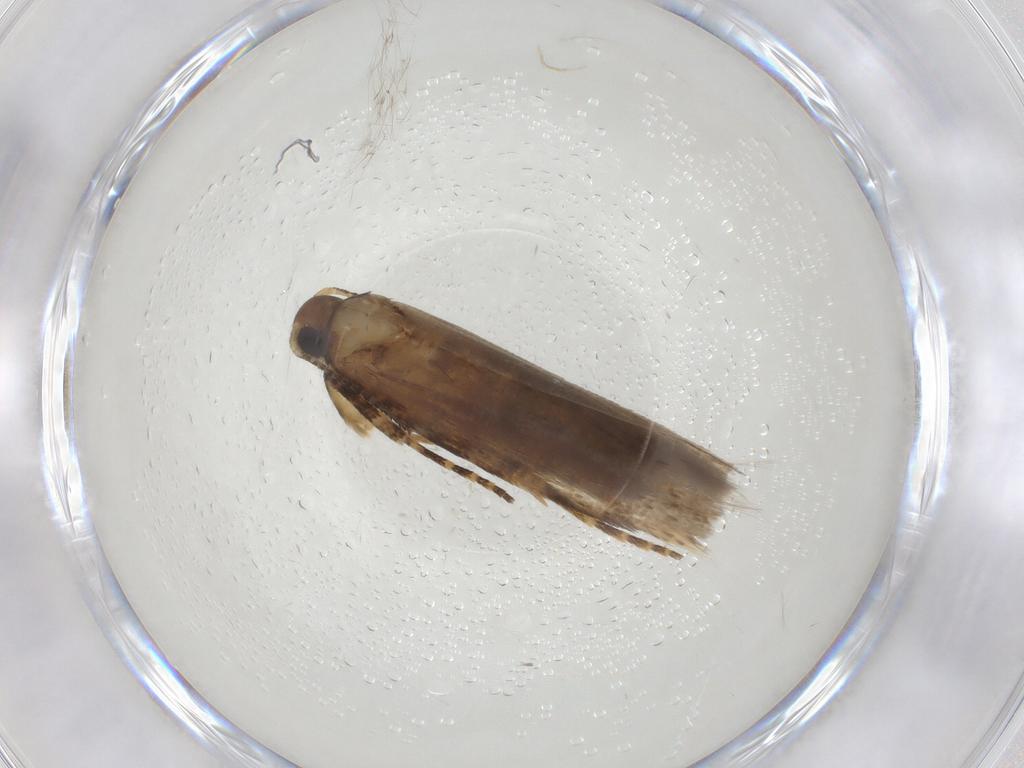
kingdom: Animalia
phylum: Arthropoda
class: Insecta
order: Lepidoptera
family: Gelechiidae
